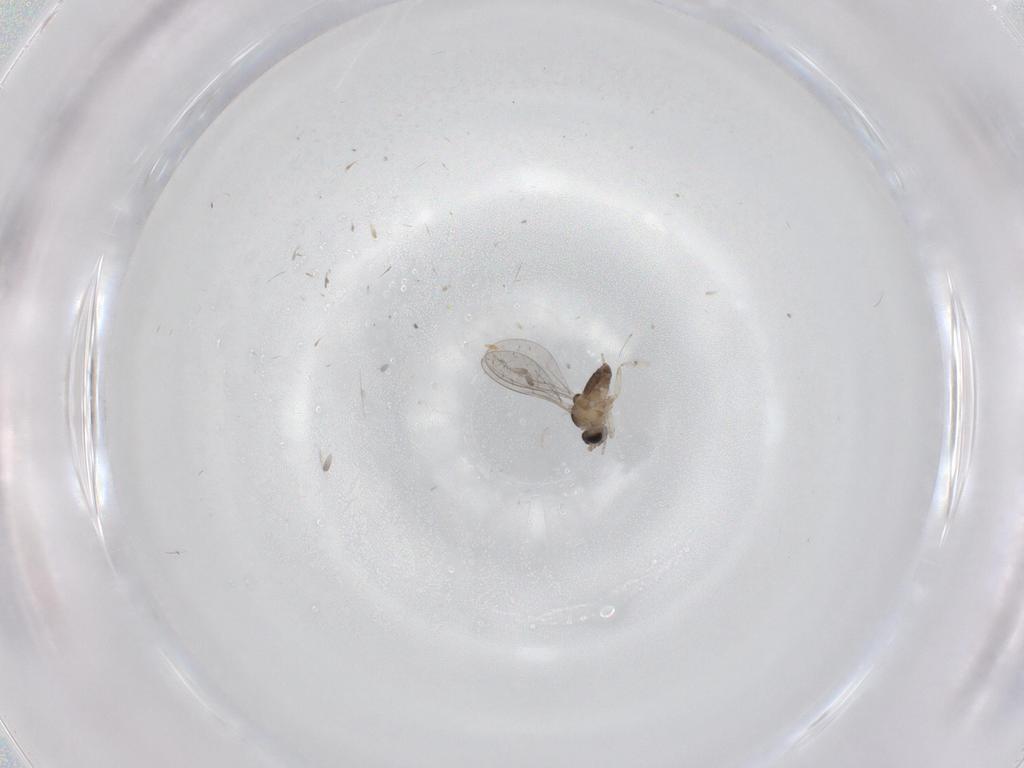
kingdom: Animalia
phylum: Arthropoda
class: Insecta
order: Diptera
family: Cecidomyiidae
